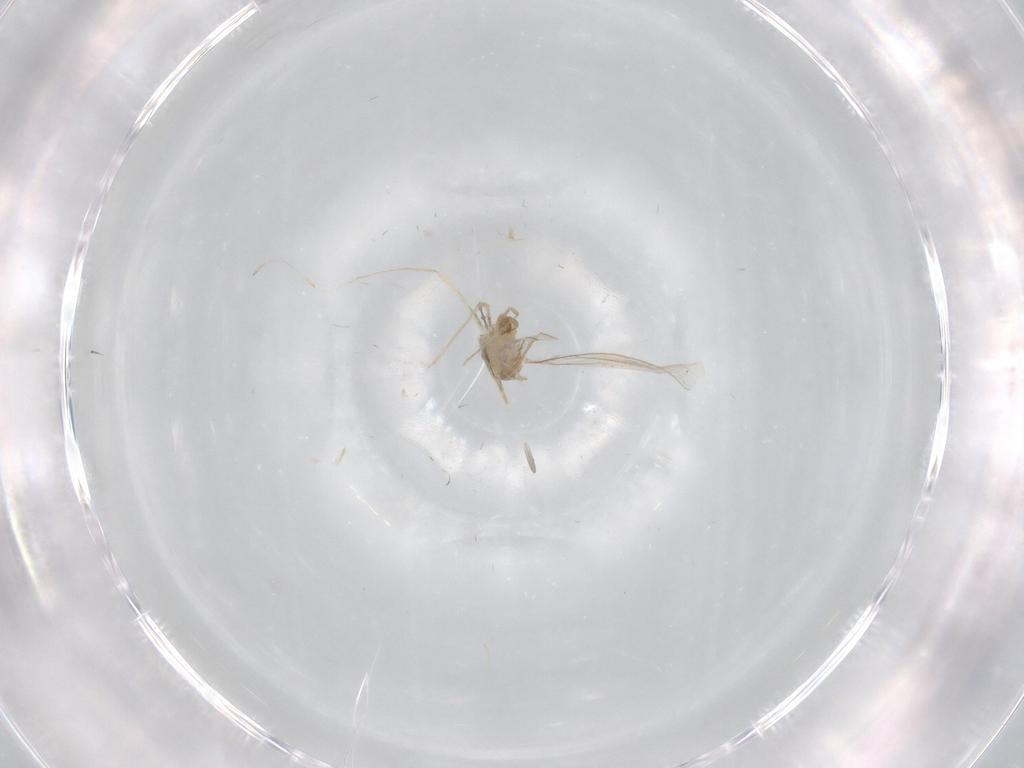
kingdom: Animalia
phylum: Arthropoda
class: Insecta
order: Diptera
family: Cecidomyiidae
